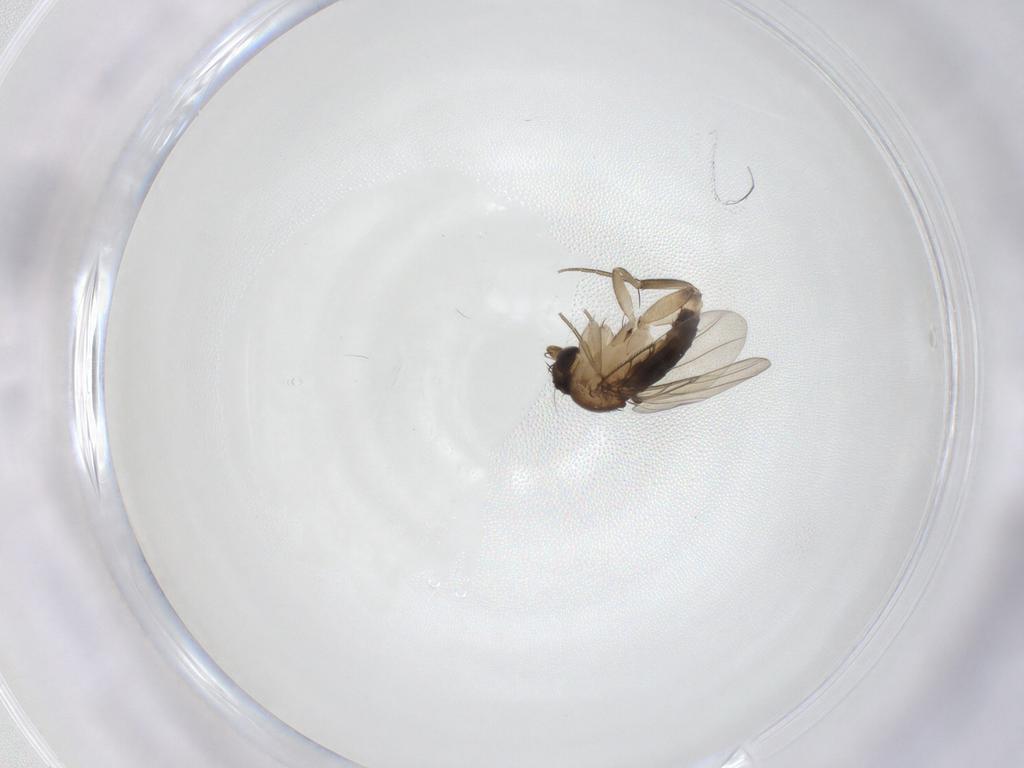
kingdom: Animalia
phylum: Arthropoda
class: Insecta
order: Diptera
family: Phoridae
